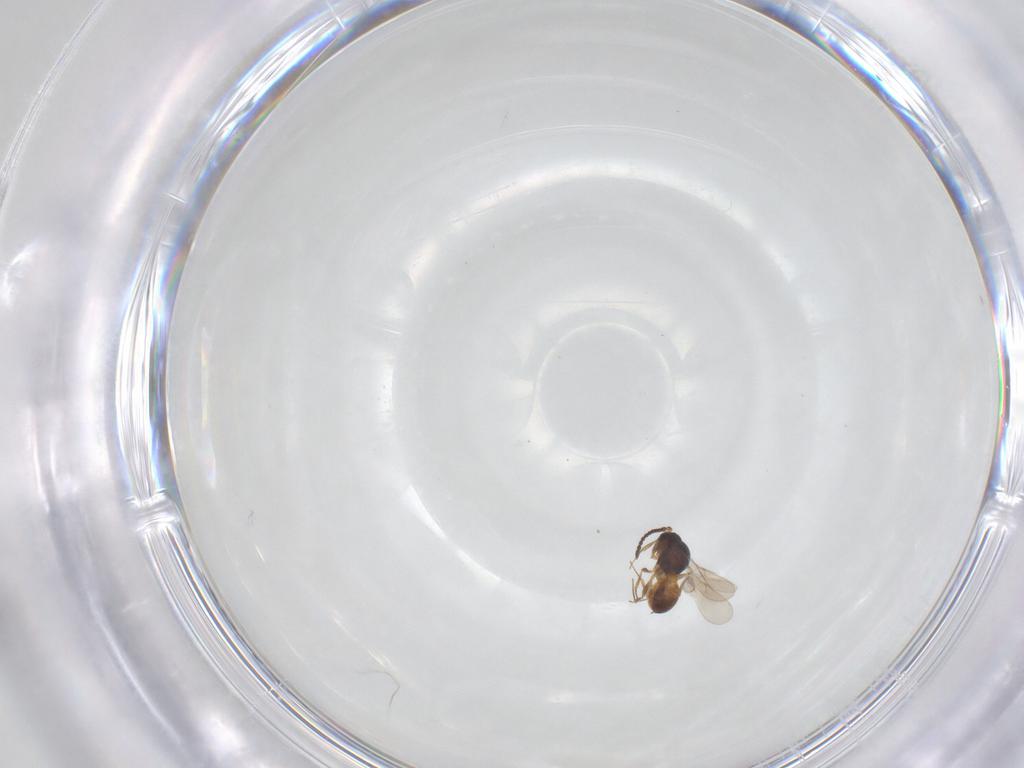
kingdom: Animalia
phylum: Arthropoda
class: Insecta
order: Hymenoptera
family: Scelionidae
